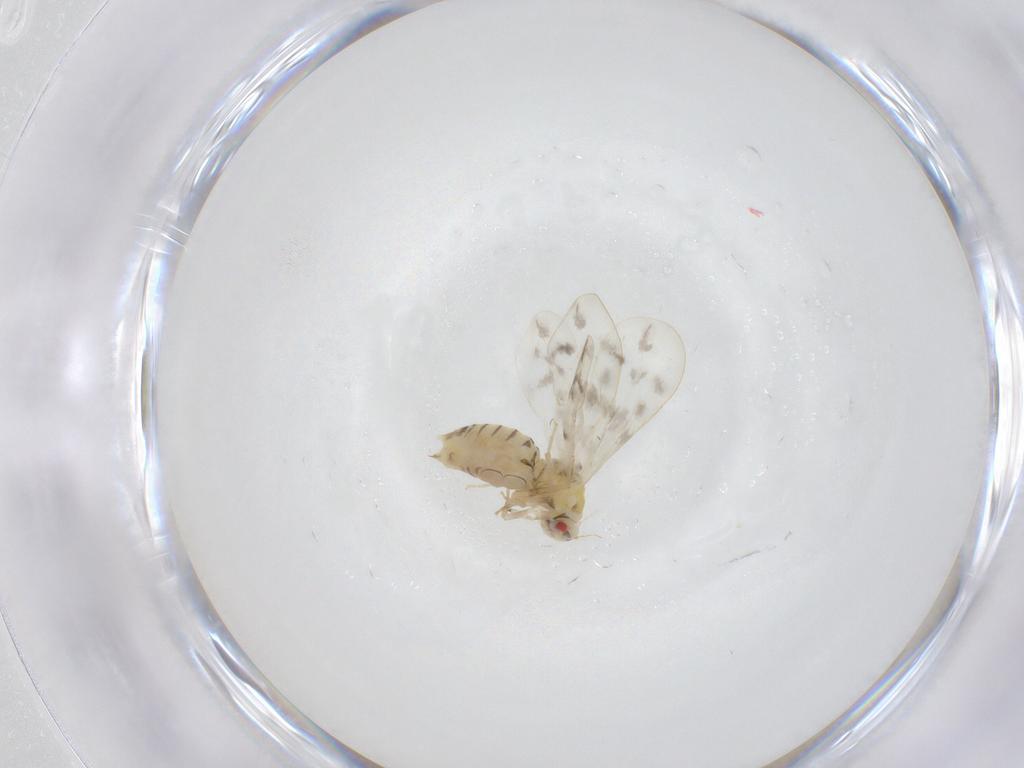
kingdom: Animalia
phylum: Arthropoda
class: Insecta
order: Hemiptera
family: Aleyrodidae
